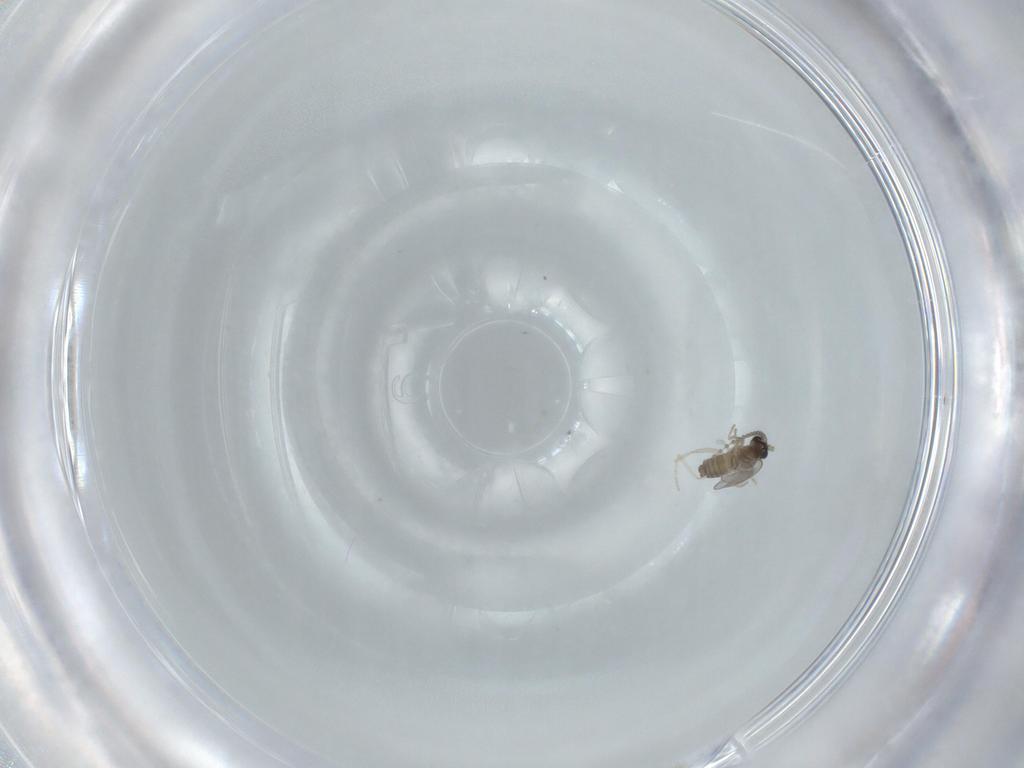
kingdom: Animalia
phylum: Arthropoda
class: Insecta
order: Diptera
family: Cecidomyiidae
